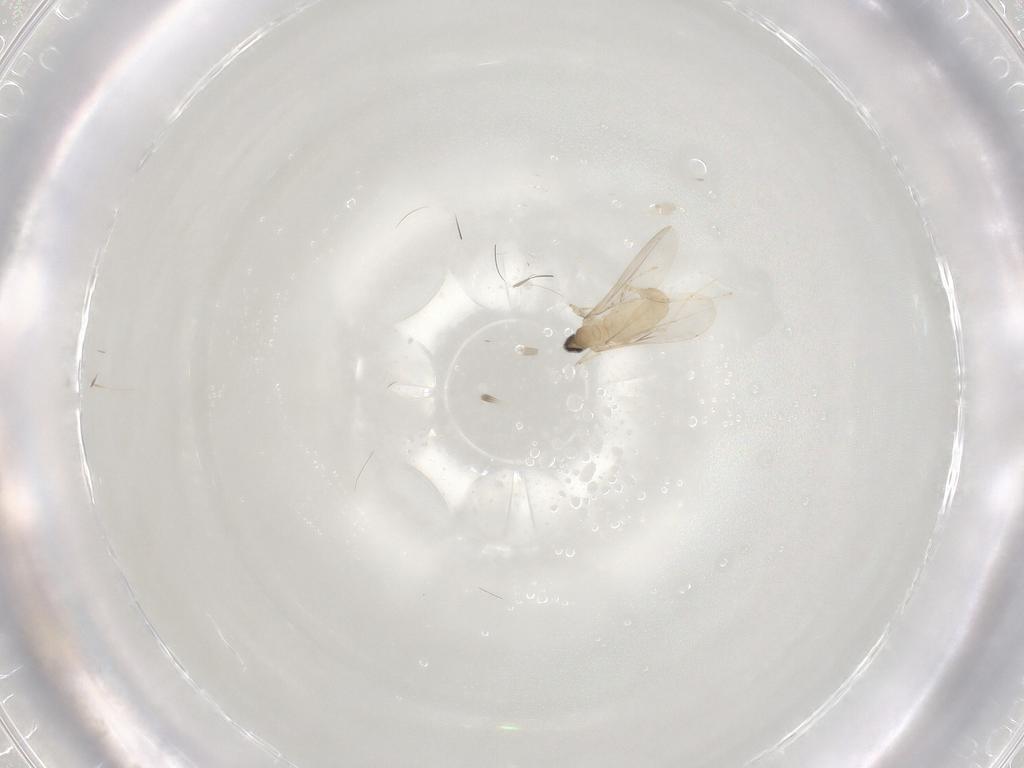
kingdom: Animalia
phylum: Arthropoda
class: Insecta
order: Diptera
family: Cecidomyiidae
